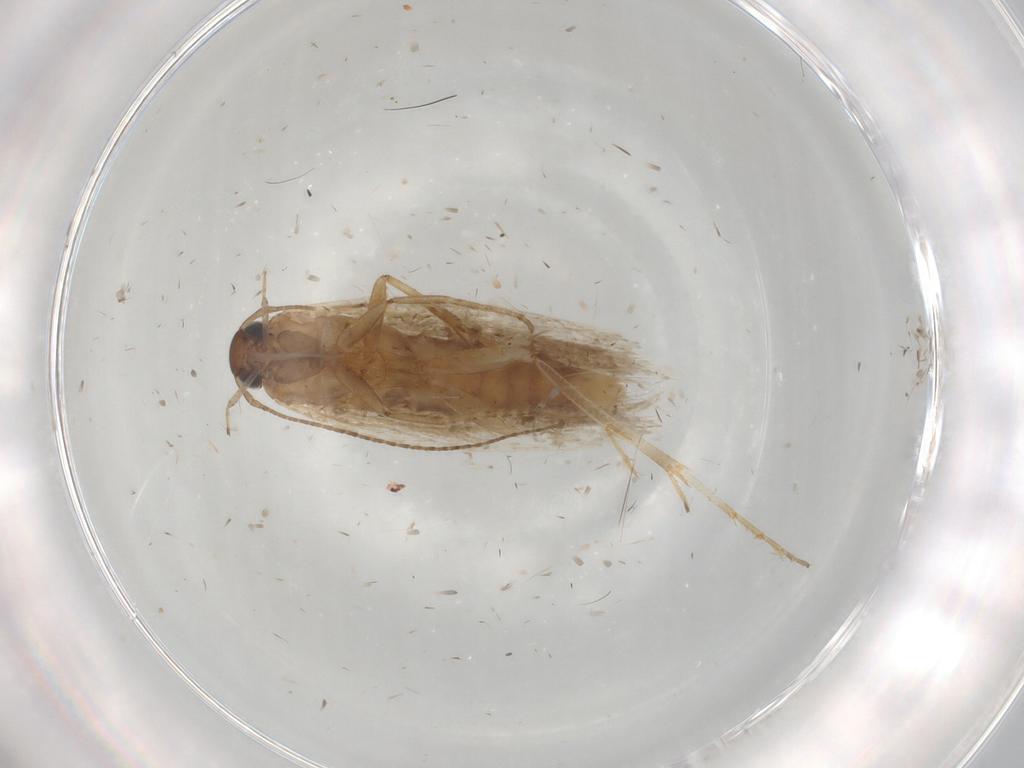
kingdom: Animalia
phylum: Arthropoda
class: Insecta
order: Lepidoptera
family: Gelechiidae
